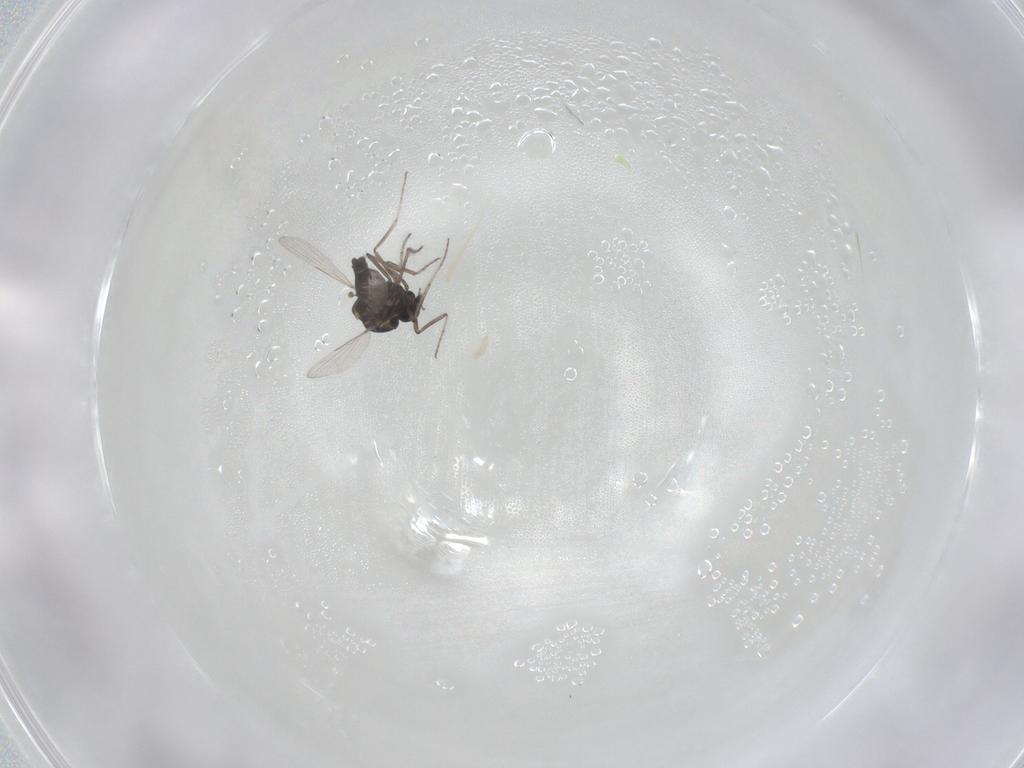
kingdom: Animalia
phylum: Arthropoda
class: Insecta
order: Diptera
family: Ceratopogonidae
